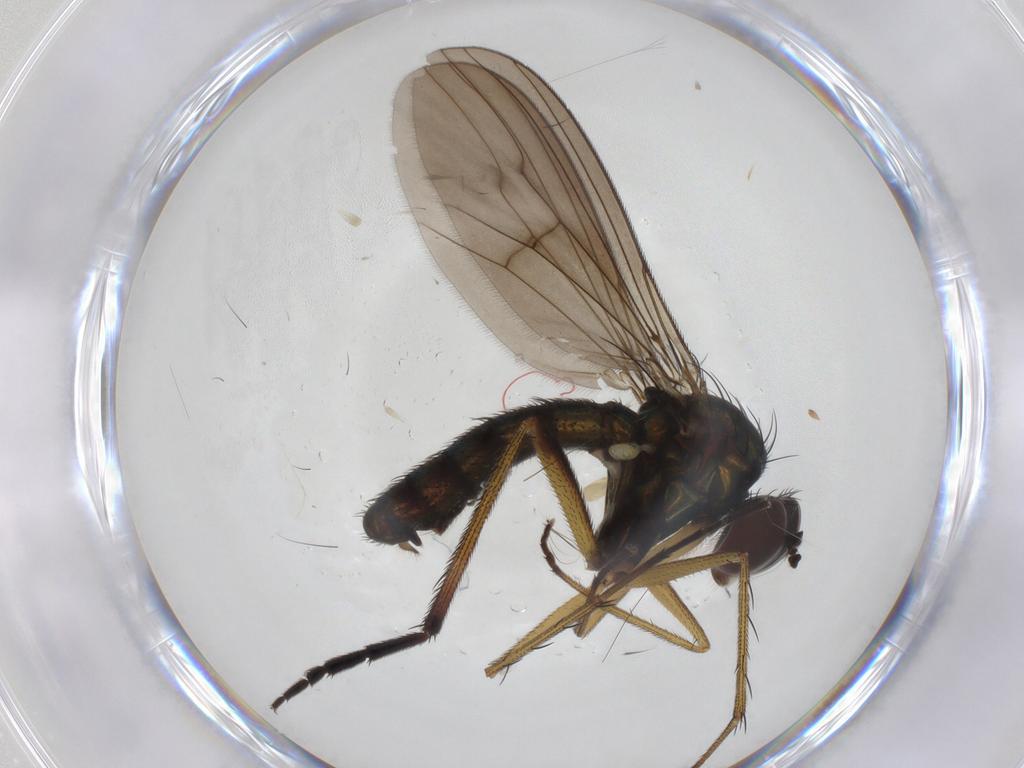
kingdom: Animalia
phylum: Arthropoda
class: Insecta
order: Diptera
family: Dolichopodidae
